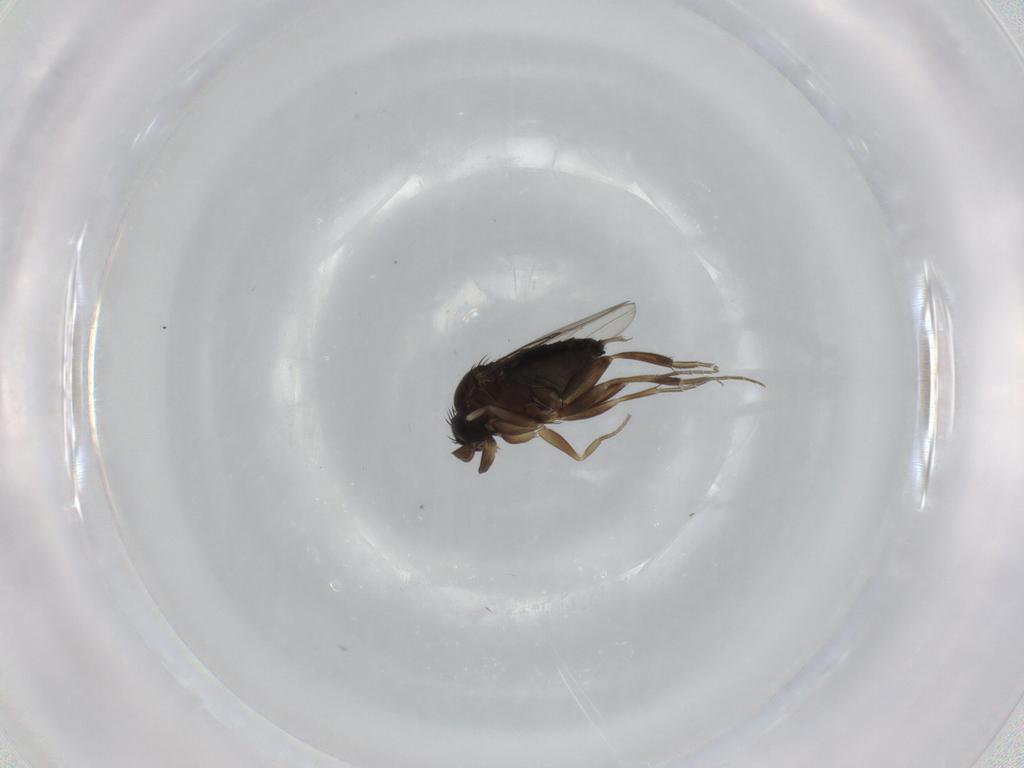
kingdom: Animalia
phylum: Arthropoda
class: Insecta
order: Diptera
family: Phoridae
